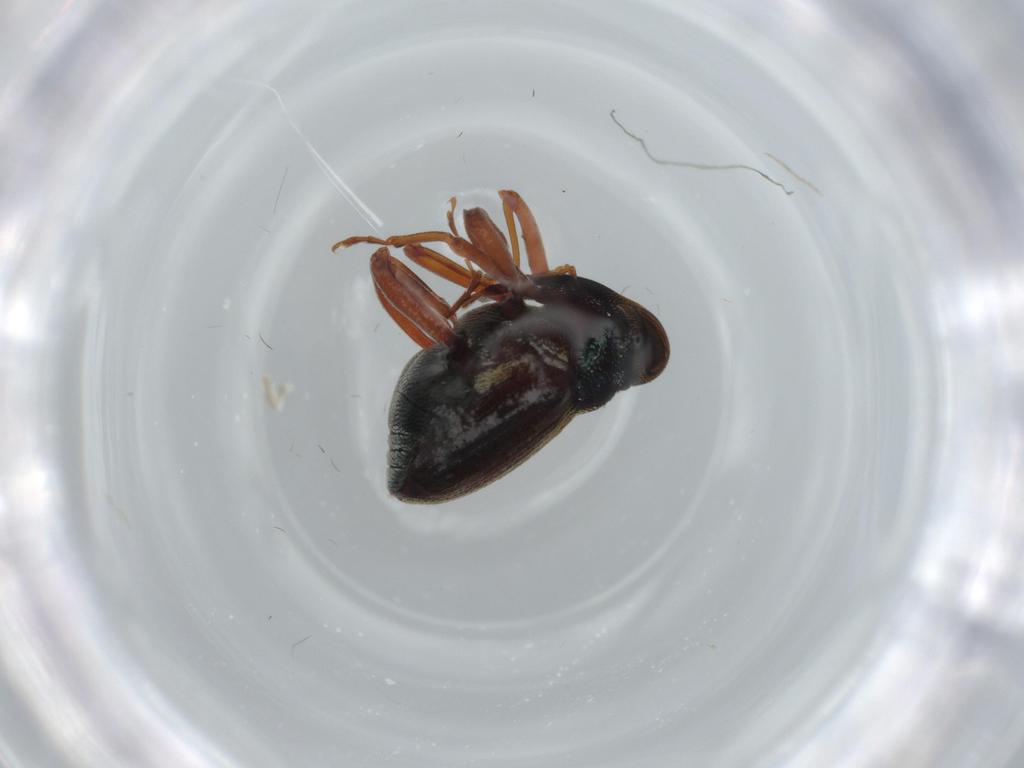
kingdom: Animalia
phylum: Arthropoda
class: Insecta
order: Coleoptera
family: Curculionidae
